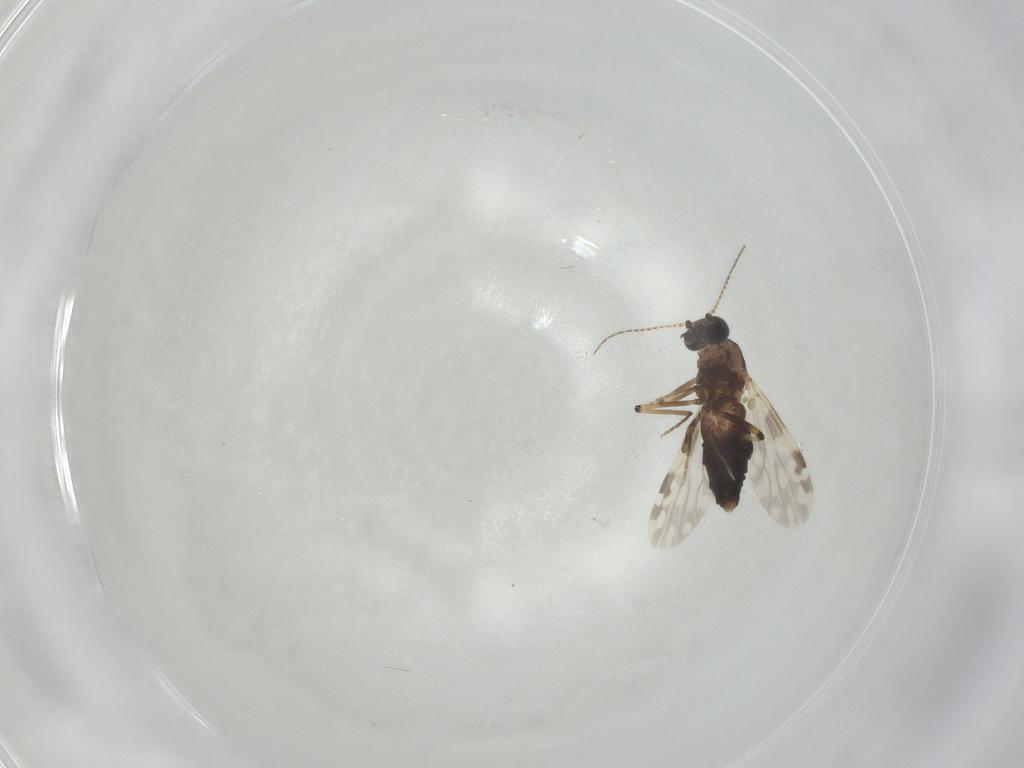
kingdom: Animalia
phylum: Arthropoda
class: Insecta
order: Diptera
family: Ceratopogonidae
